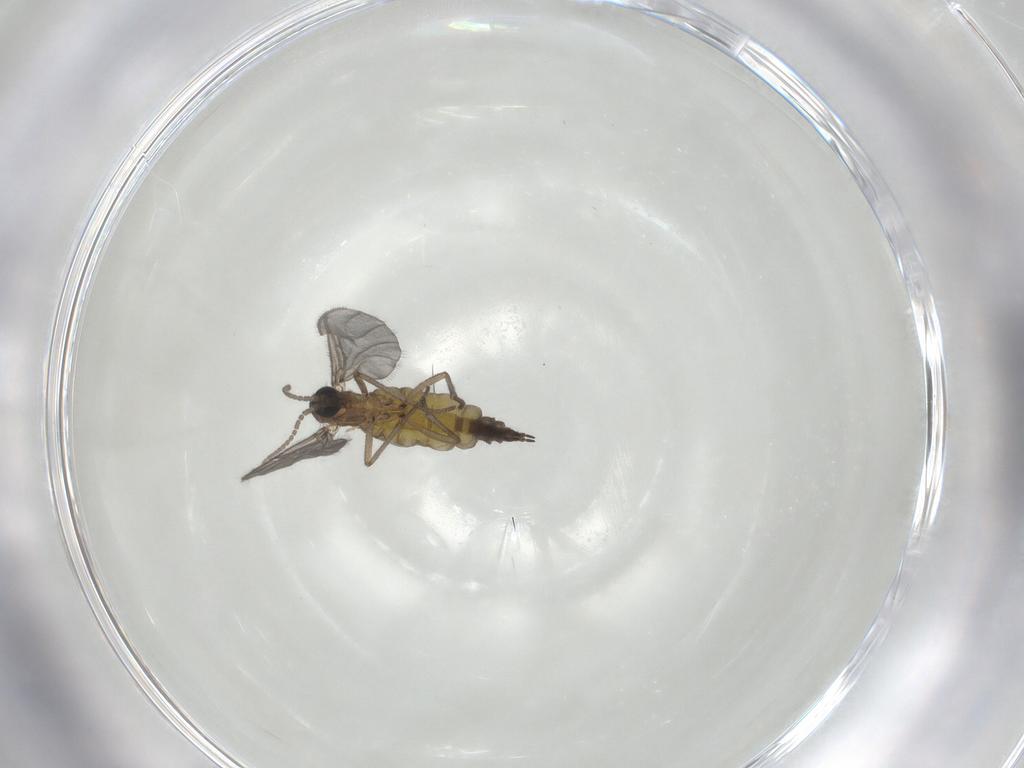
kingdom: Animalia
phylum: Arthropoda
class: Insecta
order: Diptera
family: Sciaridae
